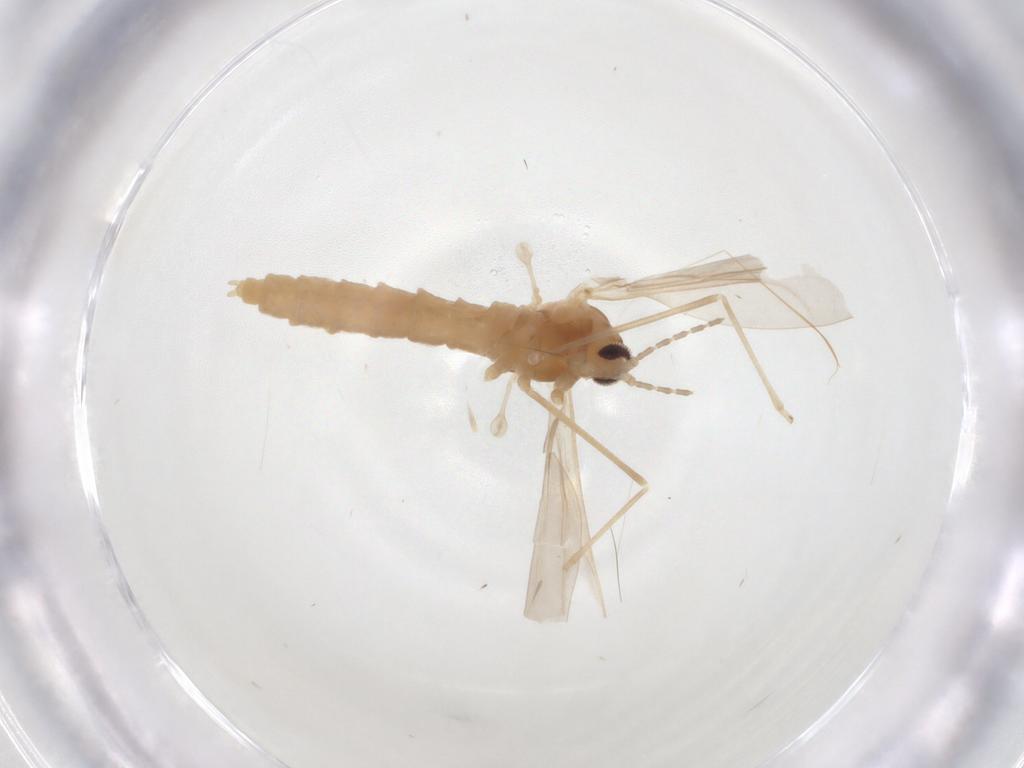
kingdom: Animalia
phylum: Arthropoda
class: Insecta
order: Diptera
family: Cecidomyiidae
